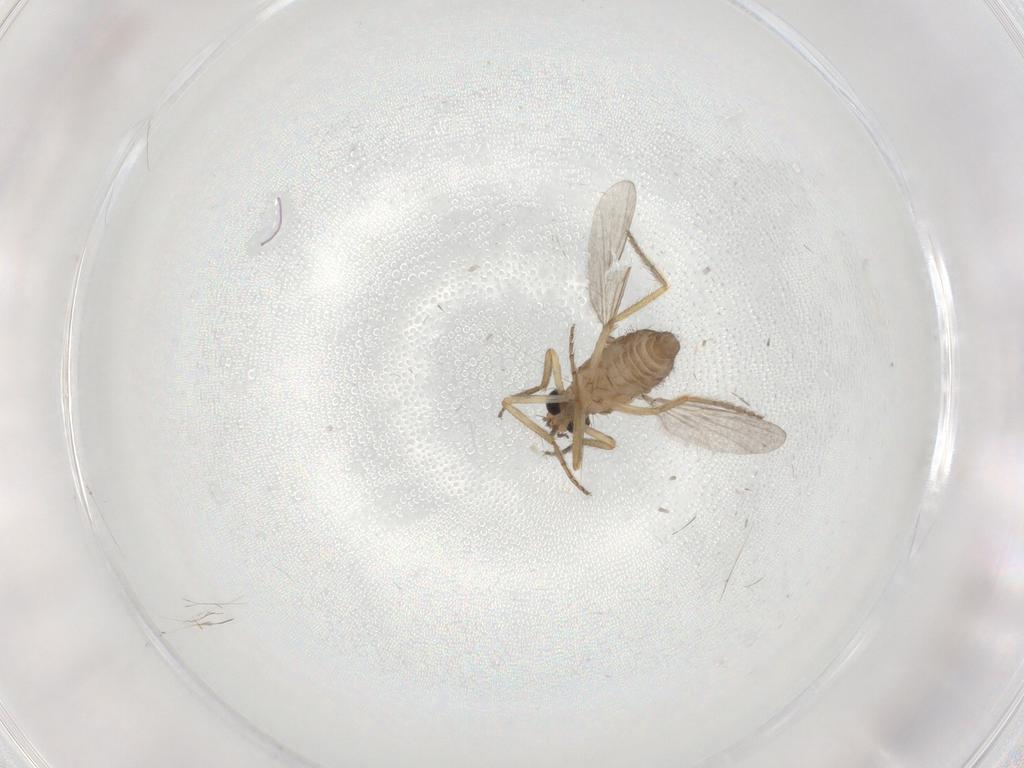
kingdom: Animalia
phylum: Arthropoda
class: Insecta
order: Diptera
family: Ceratopogonidae
